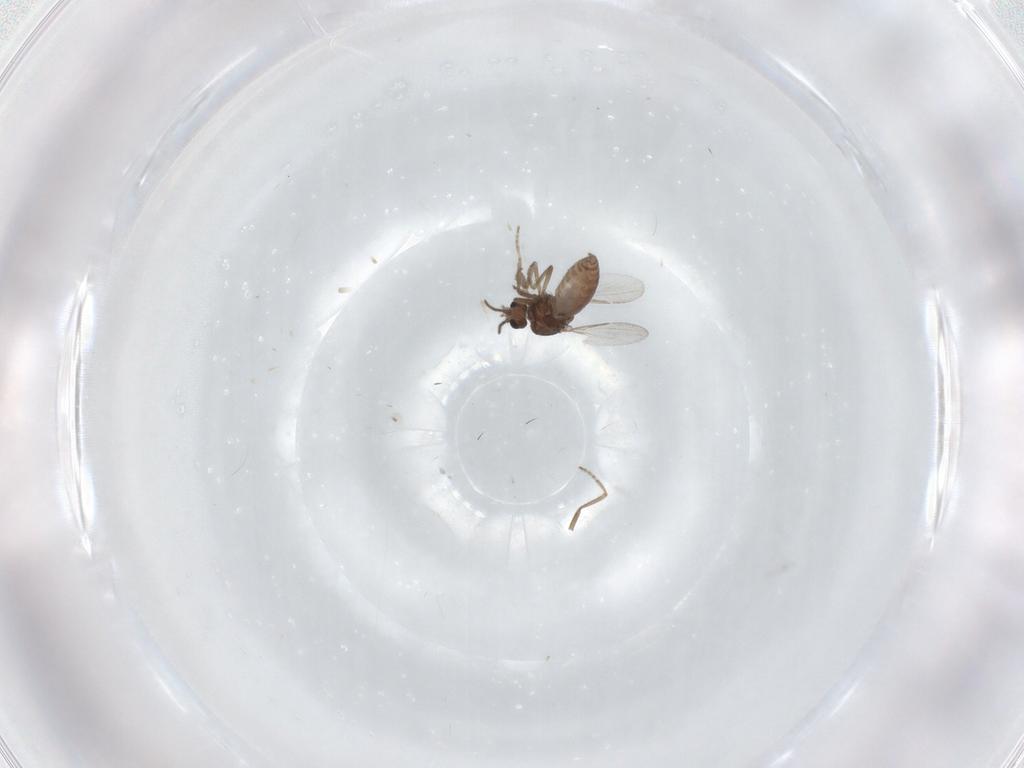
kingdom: Animalia
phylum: Arthropoda
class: Insecta
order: Diptera
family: Ceratopogonidae
